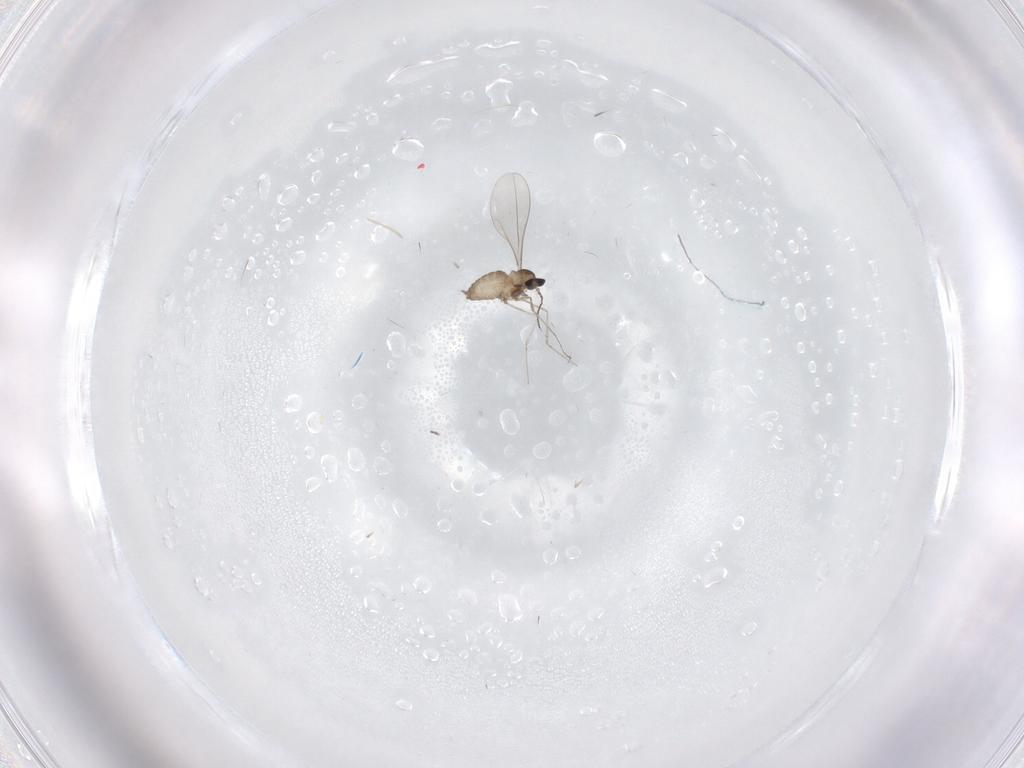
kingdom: Animalia
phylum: Arthropoda
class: Insecta
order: Diptera
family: Cecidomyiidae
